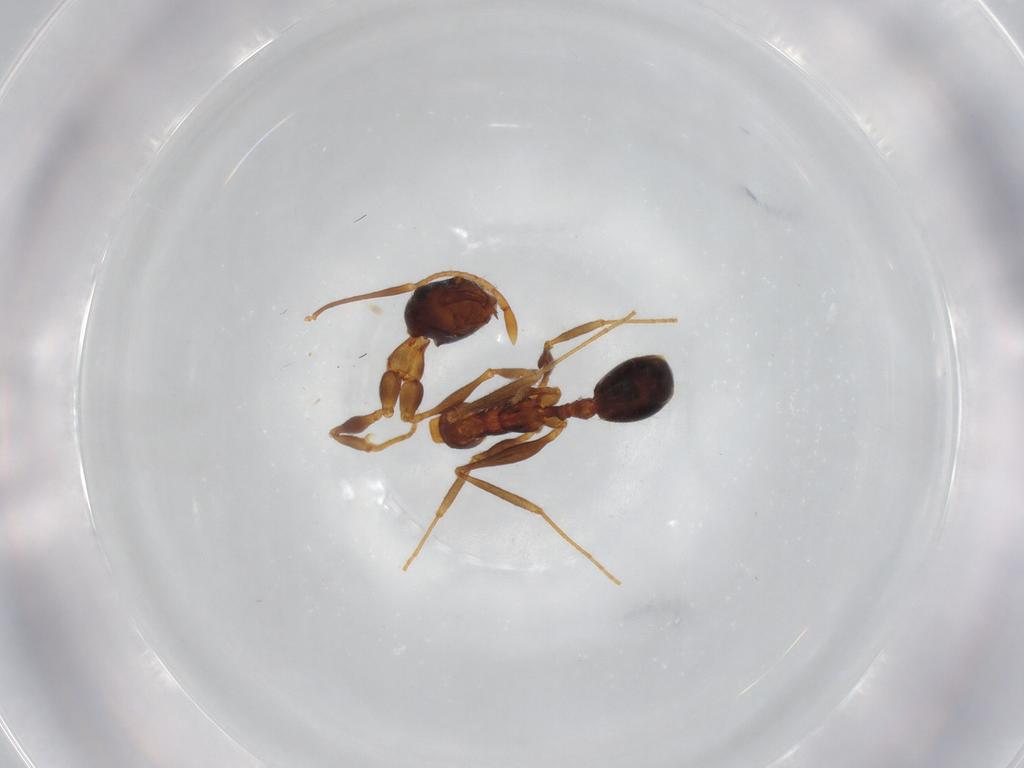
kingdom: Animalia
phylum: Arthropoda
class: Insecta
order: Hymenoptera
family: Formicidae
